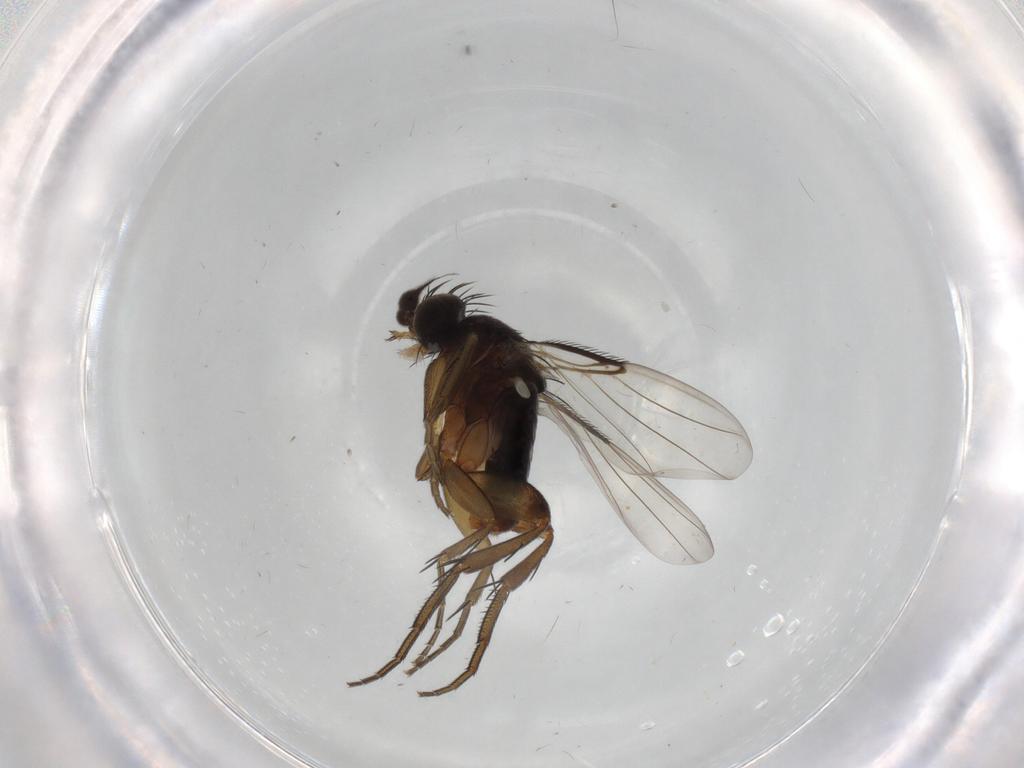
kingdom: Animalia
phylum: Arthropoda
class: Insecta
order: Diptera
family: Phoridae
